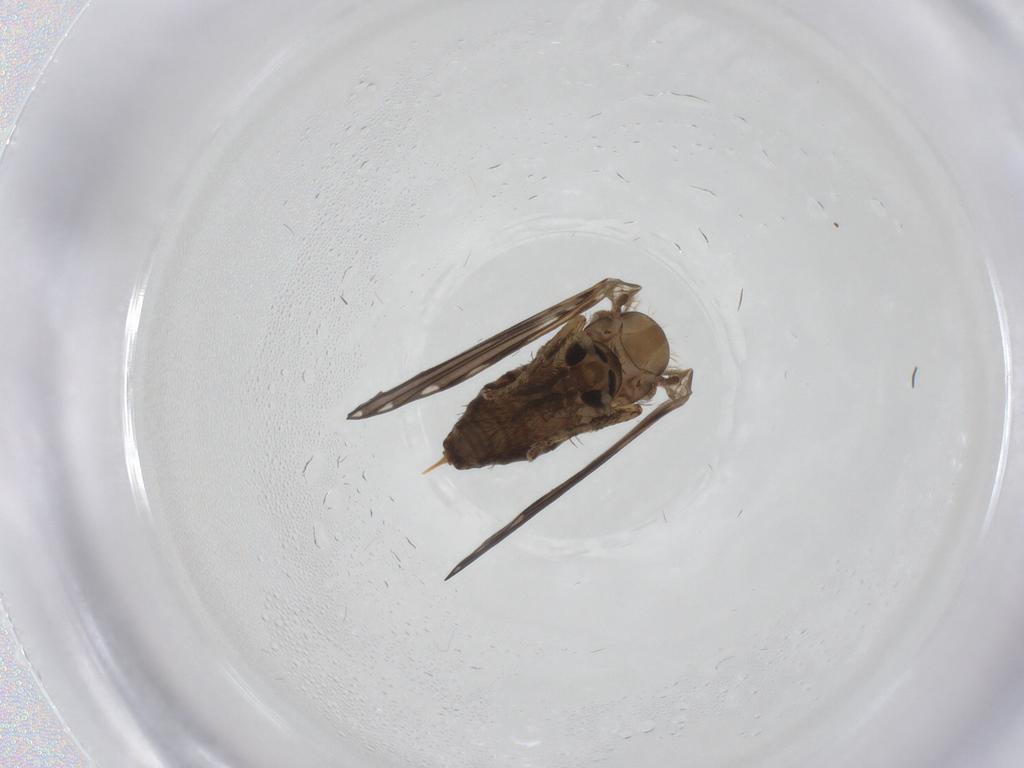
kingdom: Animalia
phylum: Arthropoda
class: Insecta
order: Diptera
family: Psychodidae
